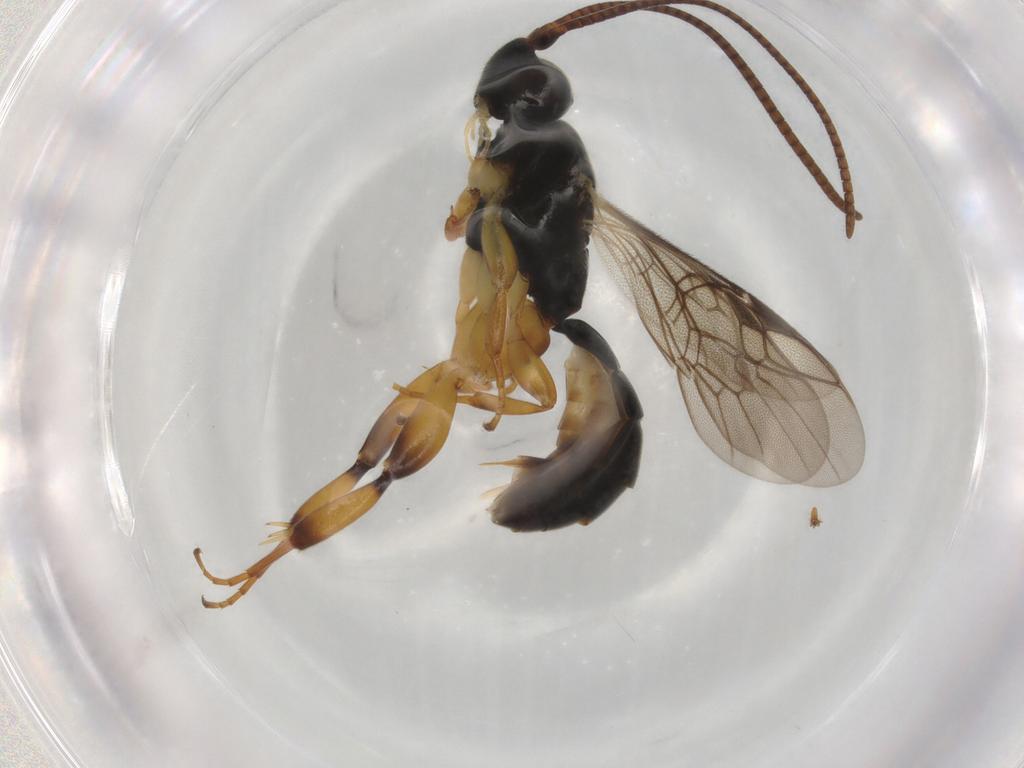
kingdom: Animalia
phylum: Arthropoda
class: Insecta
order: Hymenoptera
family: Ichneumonidae
